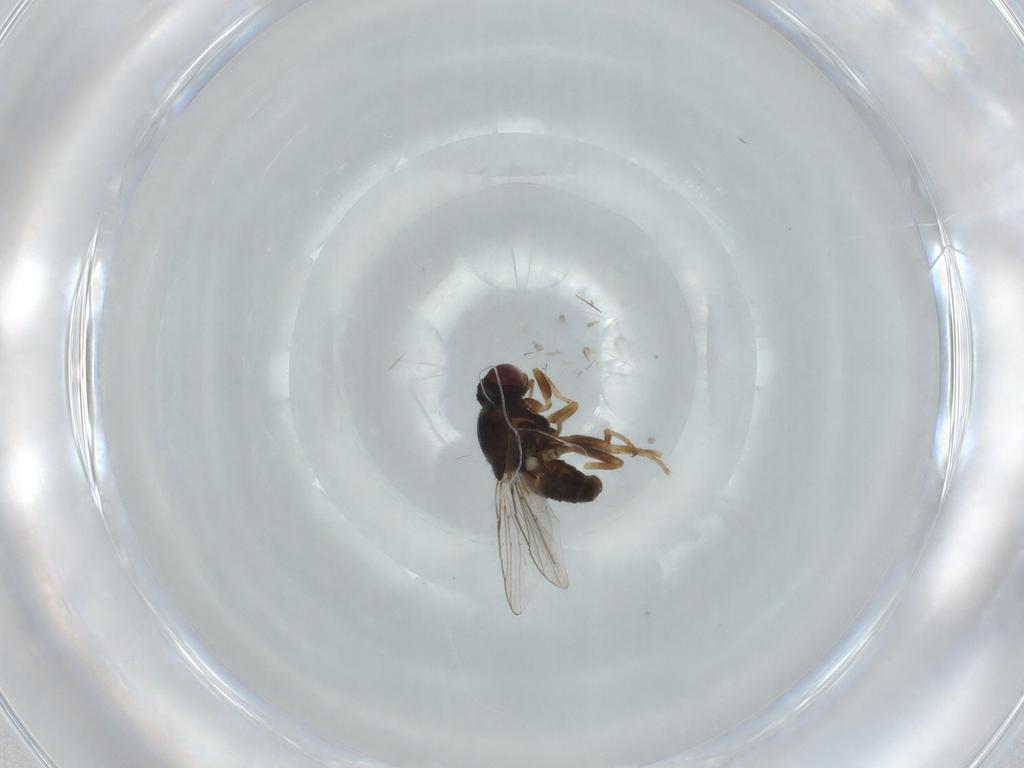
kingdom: Animalia
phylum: Arthropoda
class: Insecta
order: Diptera
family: Chloropidae
